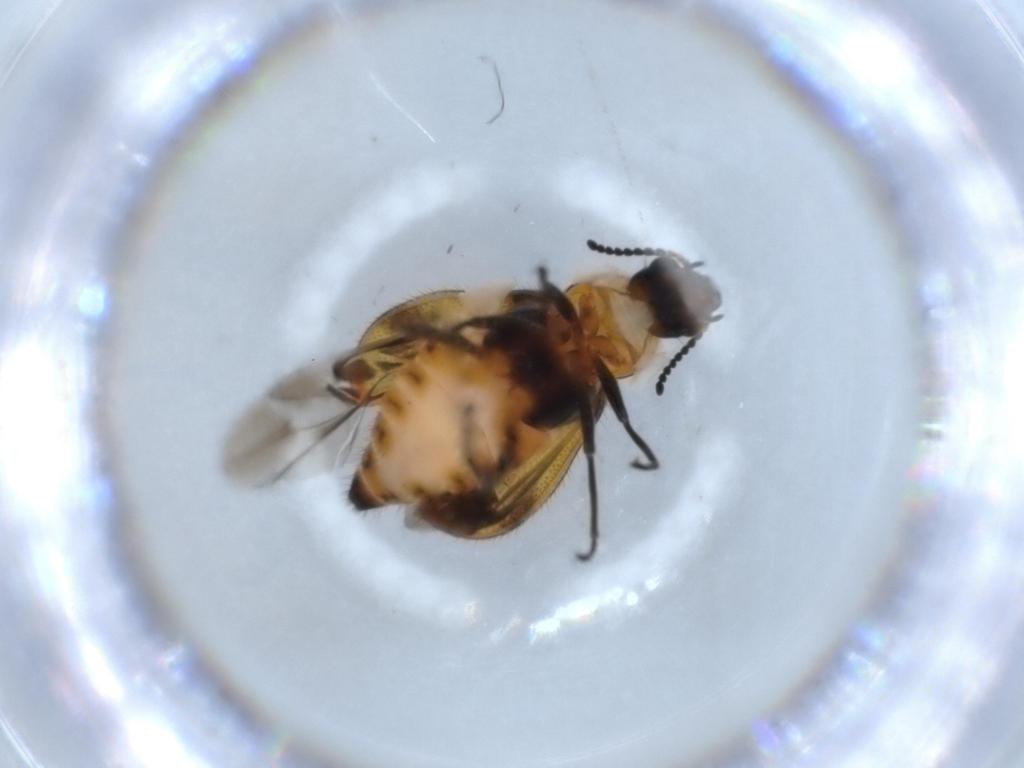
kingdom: Animalia
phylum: Arthropoda
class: Insecta
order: Coleoptera
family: Melyridae
